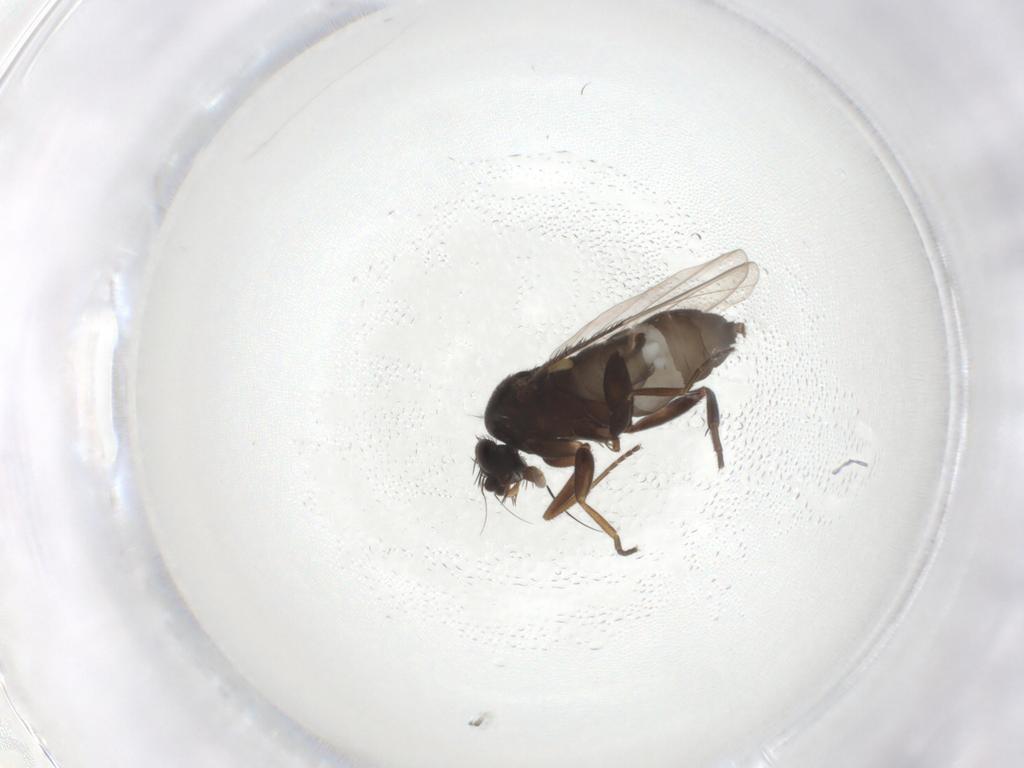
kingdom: Animalia
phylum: Arthropoda
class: Insecta
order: Diptera
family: Phoridae
